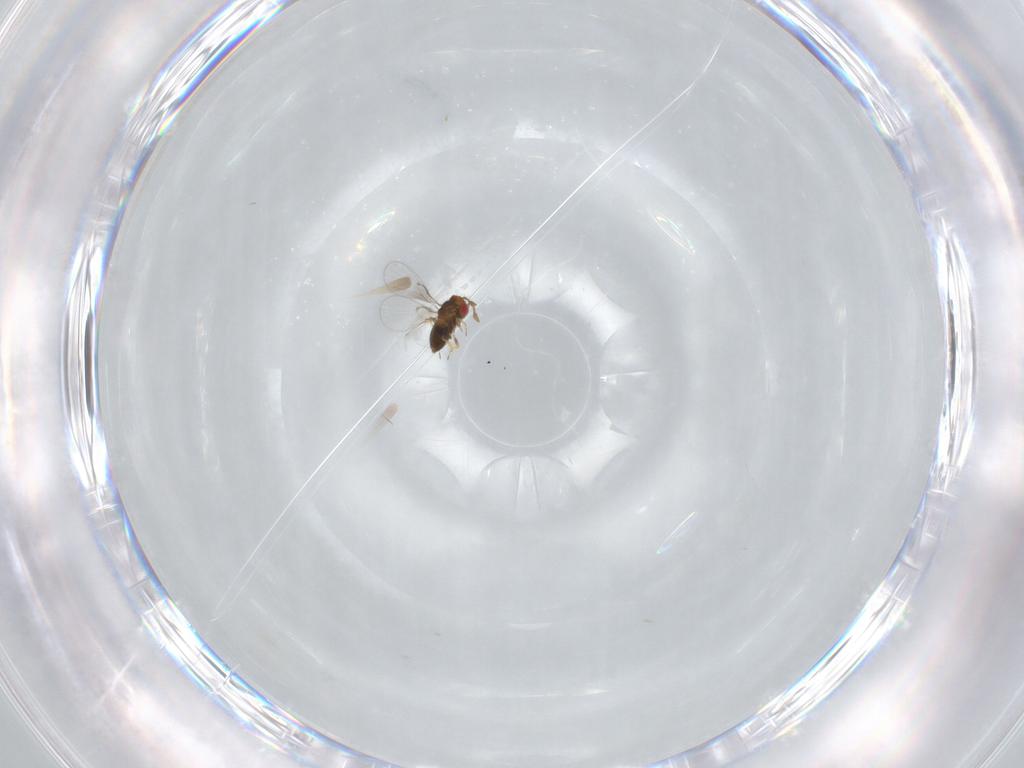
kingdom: Animalia
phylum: Arthropoda
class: Insecta
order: Hymenoptera
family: Trichogrammatidae
